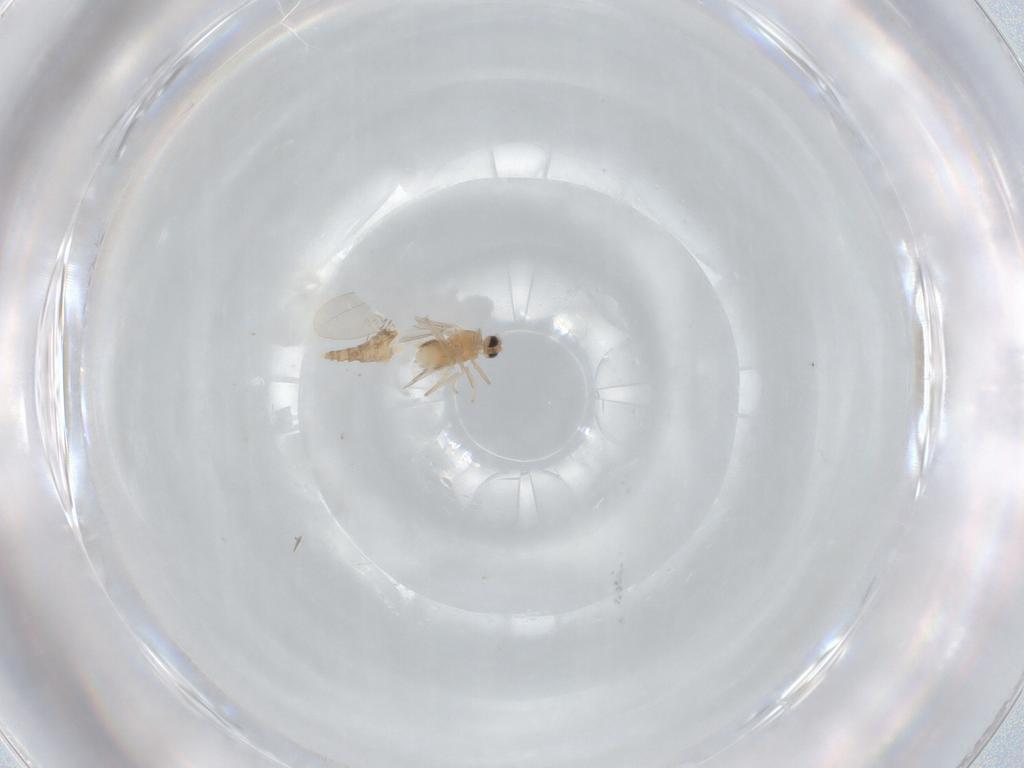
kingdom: Animalia
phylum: Arthropoda
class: Insecta
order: Diptera
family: Cecidomyiidae
